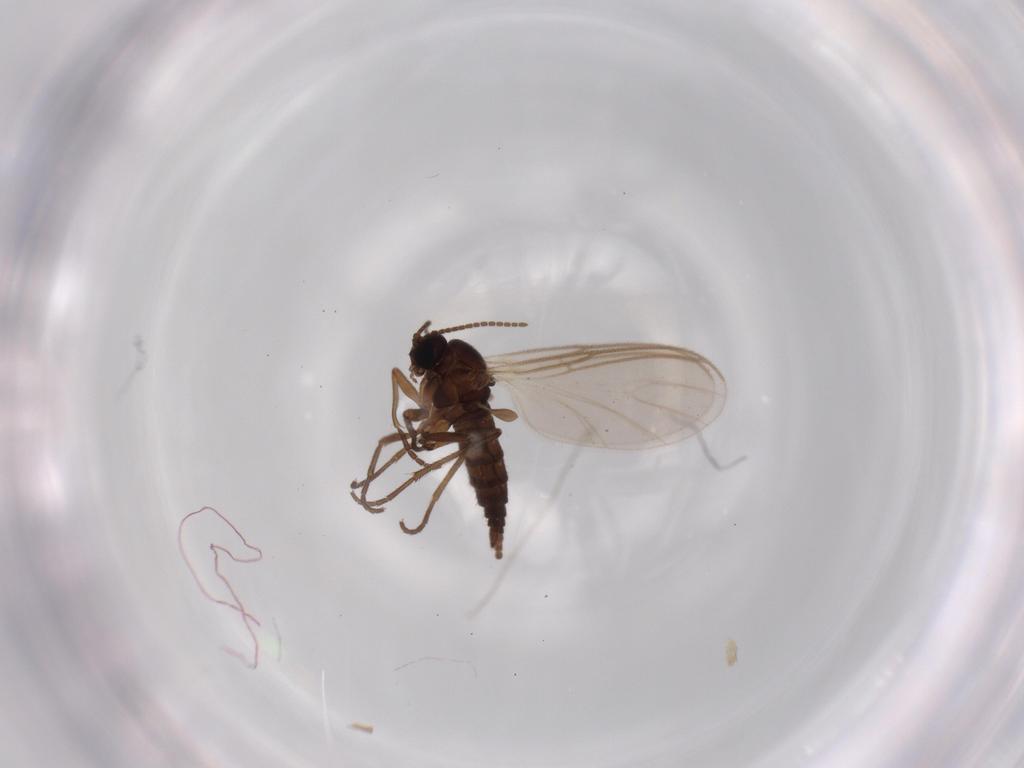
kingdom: Animalia
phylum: Arthropoda
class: Insecta
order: Diptera
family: Sciaridae
